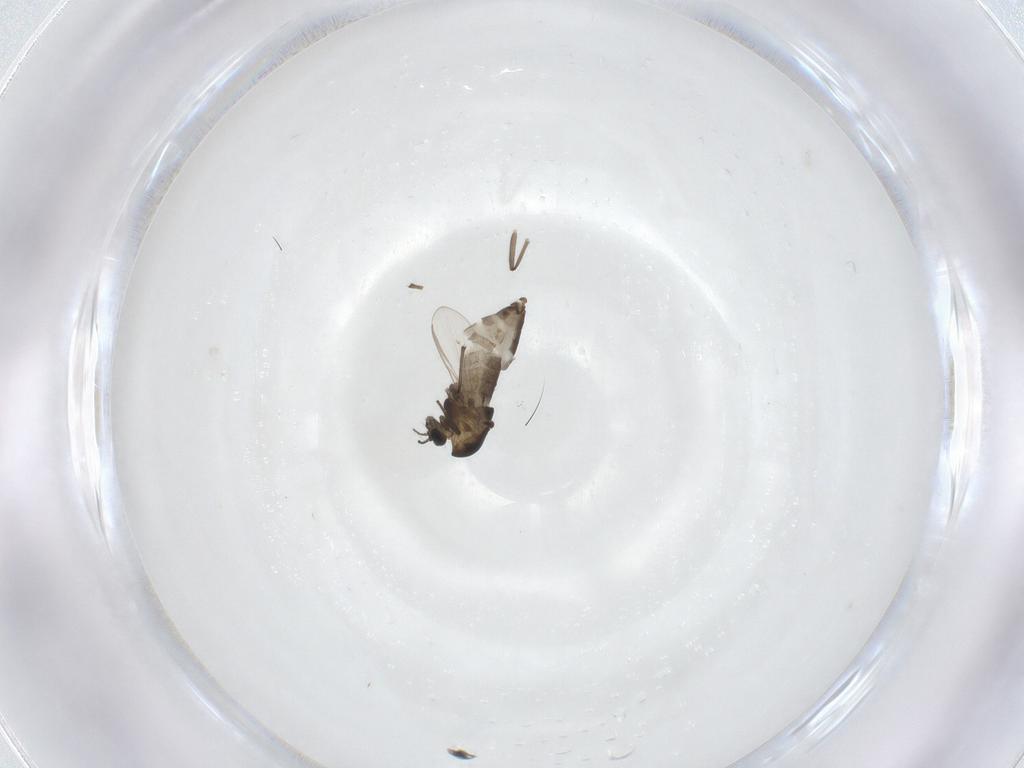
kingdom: Animalia
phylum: Arthropoda
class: Insecta
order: Diptera
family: Chironomidae
